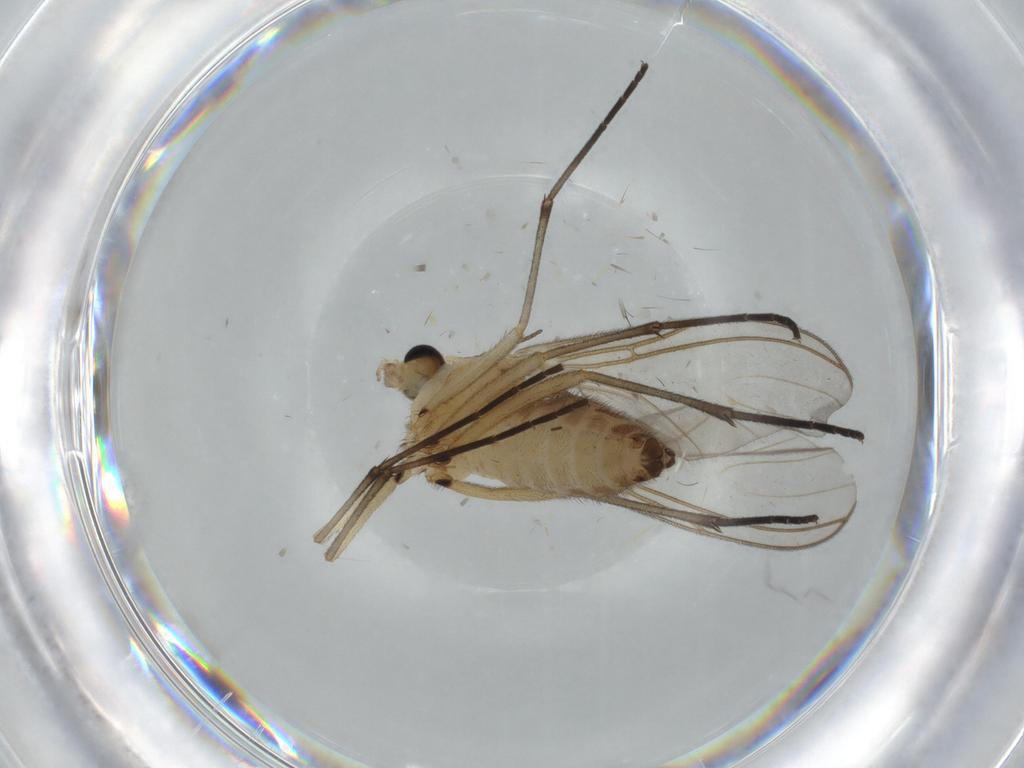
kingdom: Animalia
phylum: Arthropoda
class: Insecta
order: Diptera
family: Sciaridae
